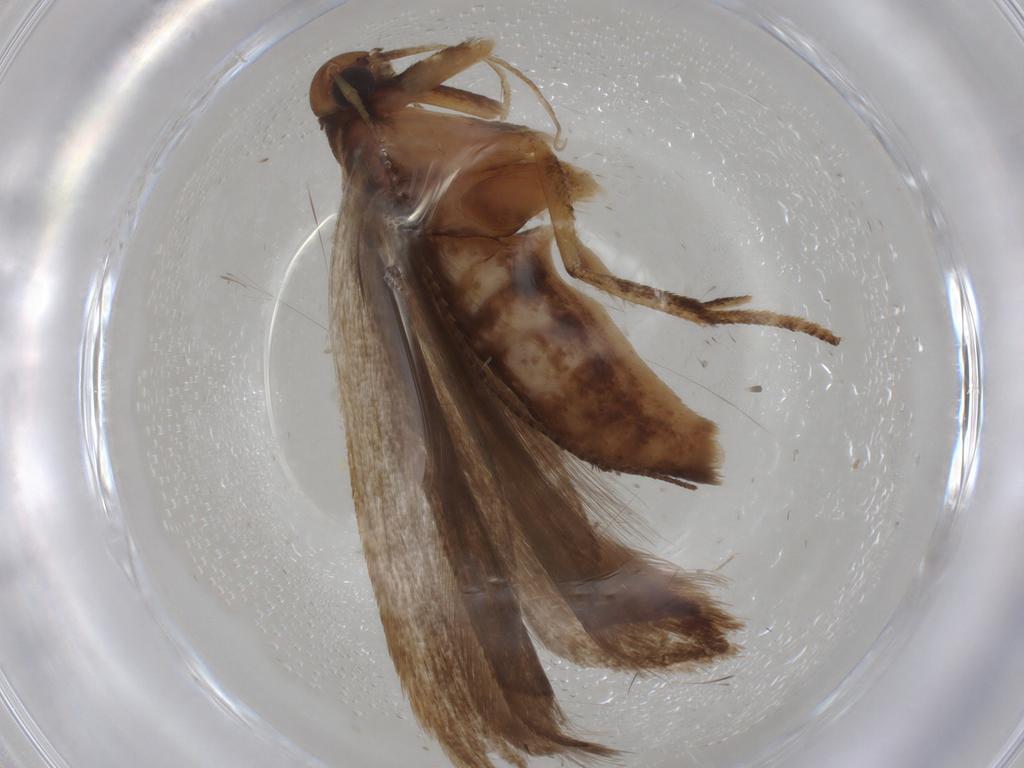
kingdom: Animalia
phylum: Arthropoda
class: Insecta
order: Lepidoptera
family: Gelechiidae
